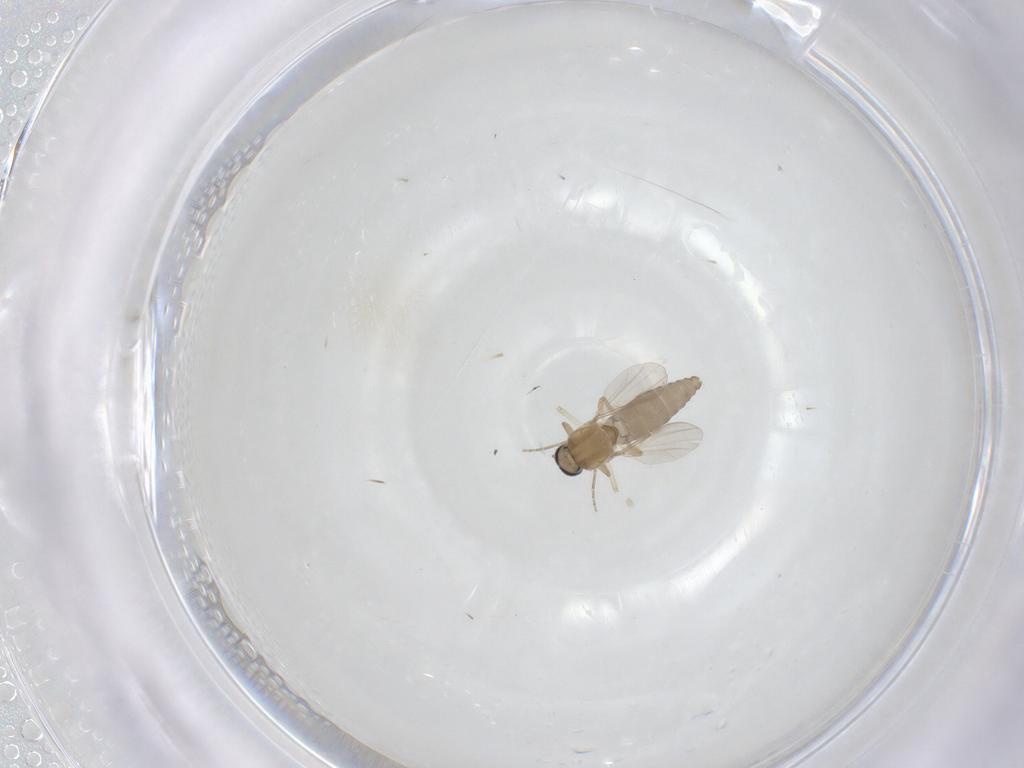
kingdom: Animalia
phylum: Arthropoda
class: Insecta
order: Diptera
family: Ceratopogonidae
